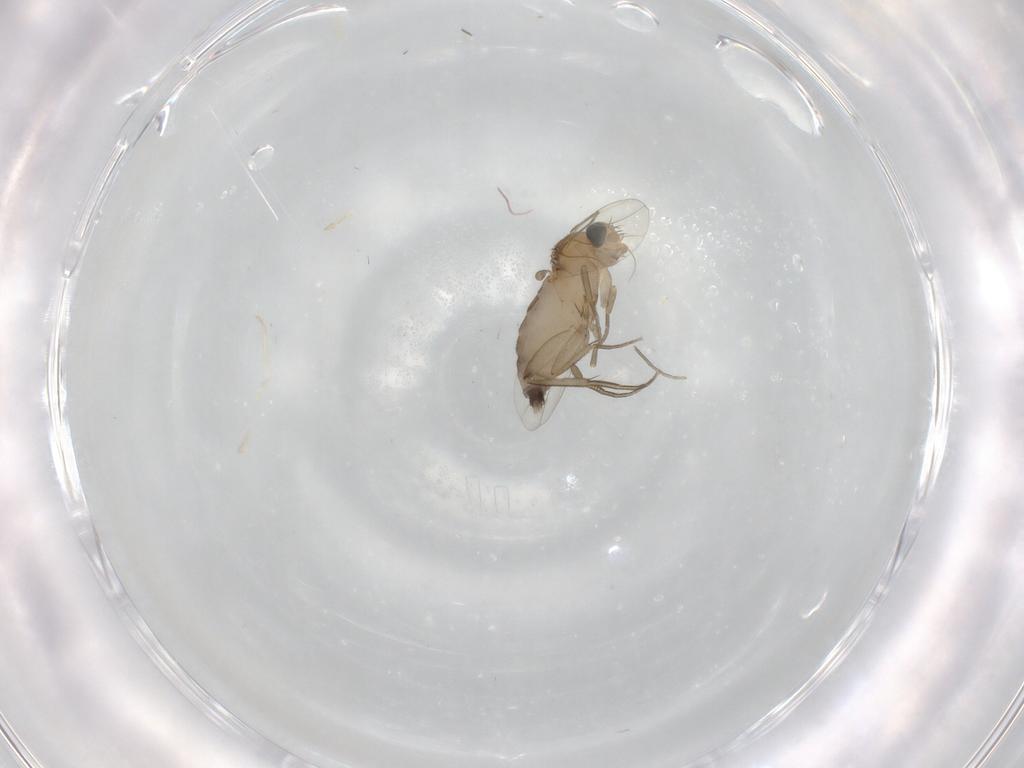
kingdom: Animalia
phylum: Arthropoda
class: Insecta
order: Diptera
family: Phoridae
